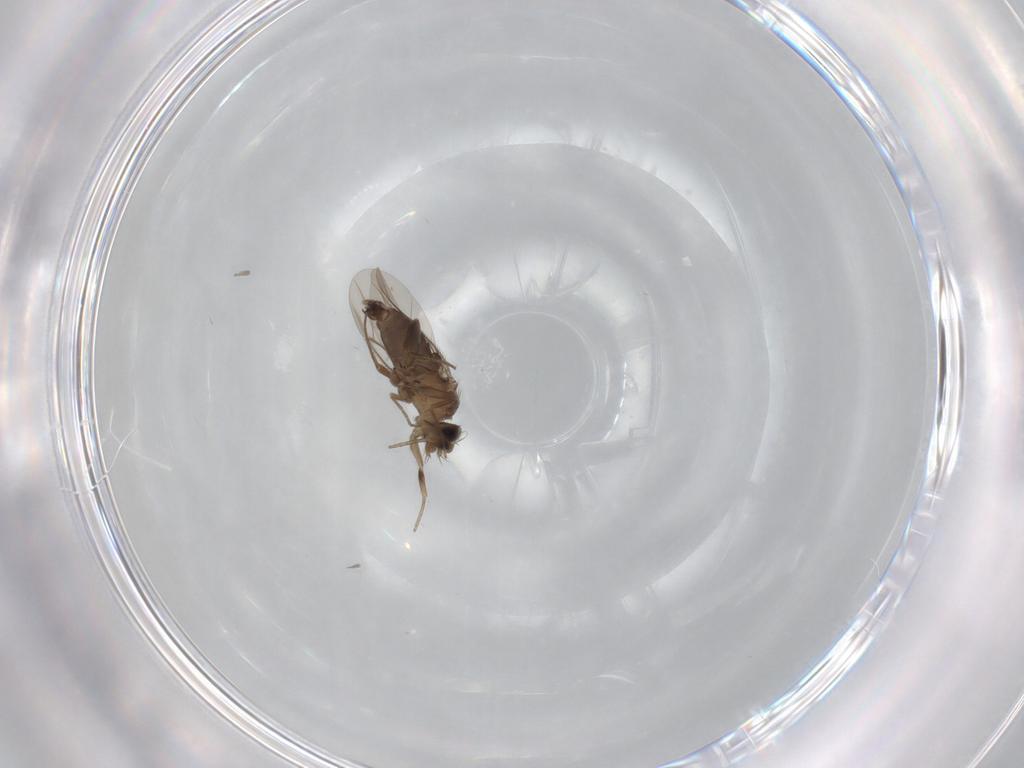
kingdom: Animalia
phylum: Arthropoda
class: Insecta
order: Diptera
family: Phoridae
